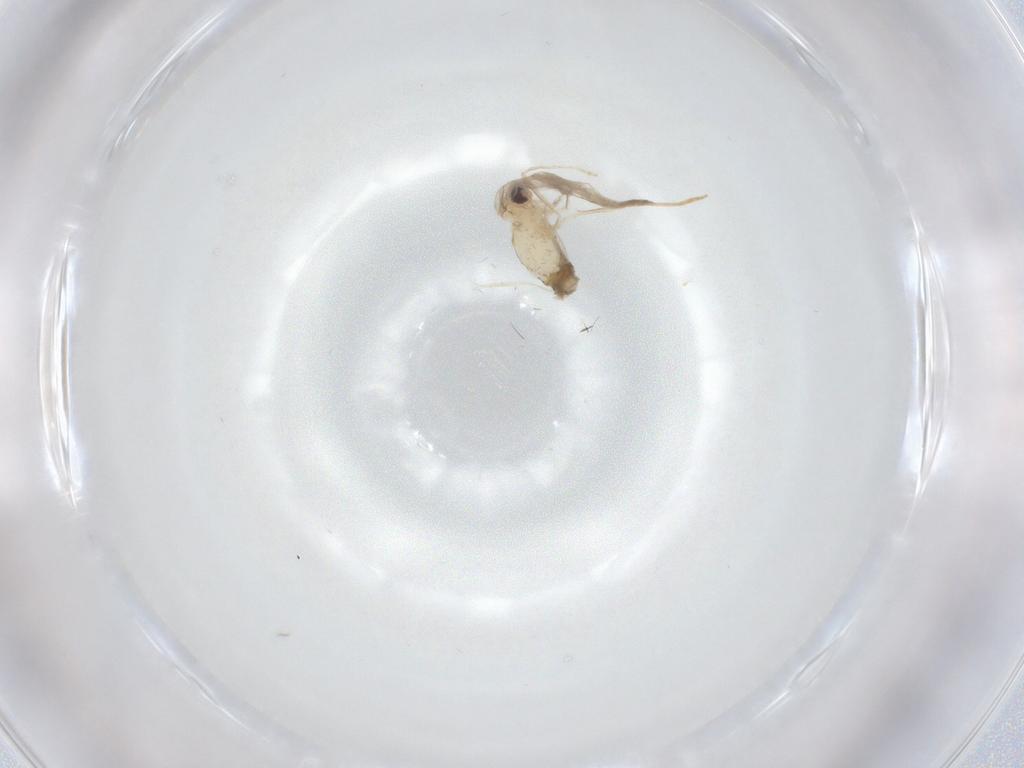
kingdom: Animalia
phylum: Arthropoda
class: Insecta
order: Diptera
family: Cecidomyiidae
